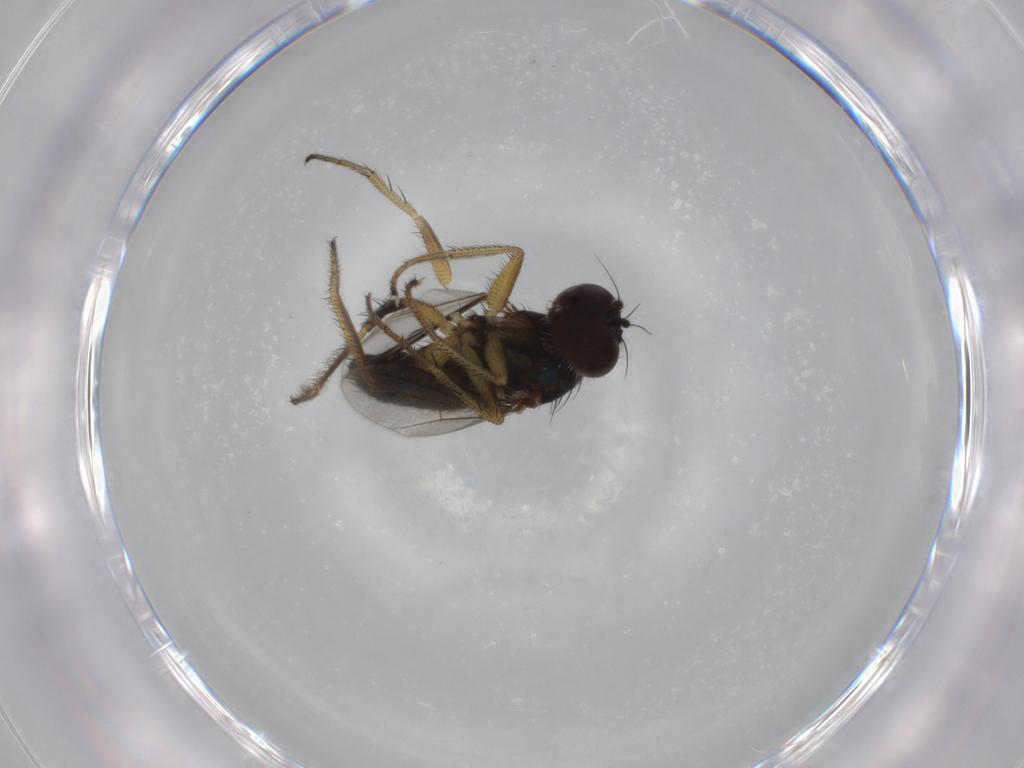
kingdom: Animalia
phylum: Arthropoda
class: Insecta
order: Diptera
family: Dolichopodidae
